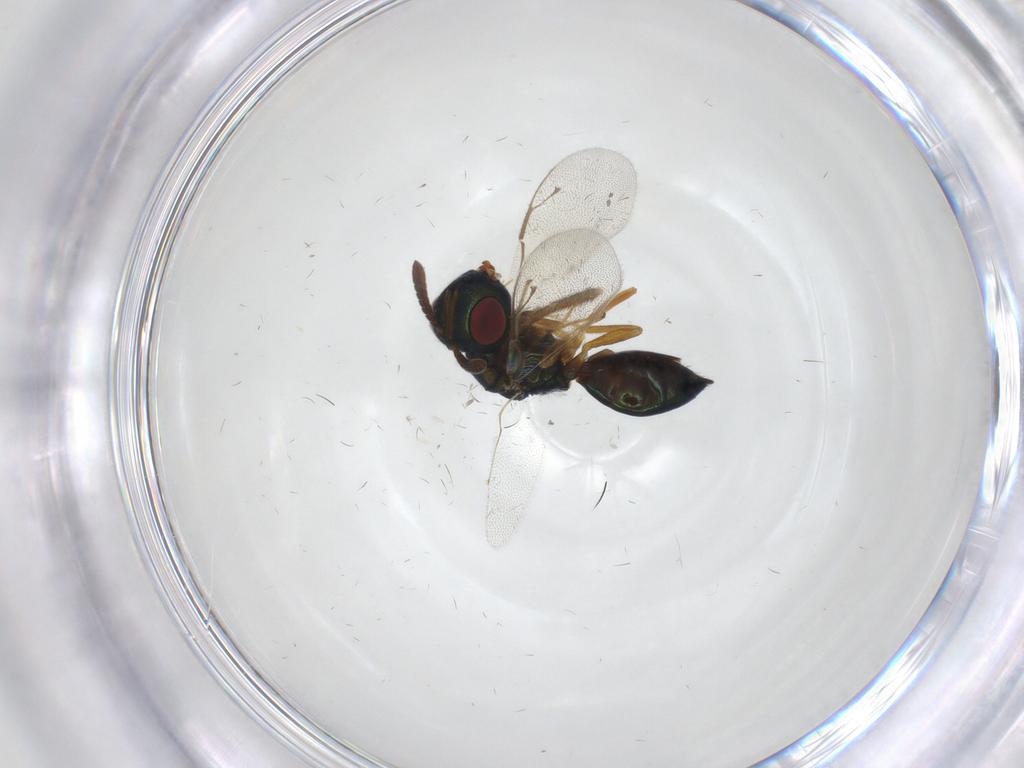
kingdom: Animalia
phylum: Arthropoda
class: Insecta
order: Hymenoptera
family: Pteromalidae
